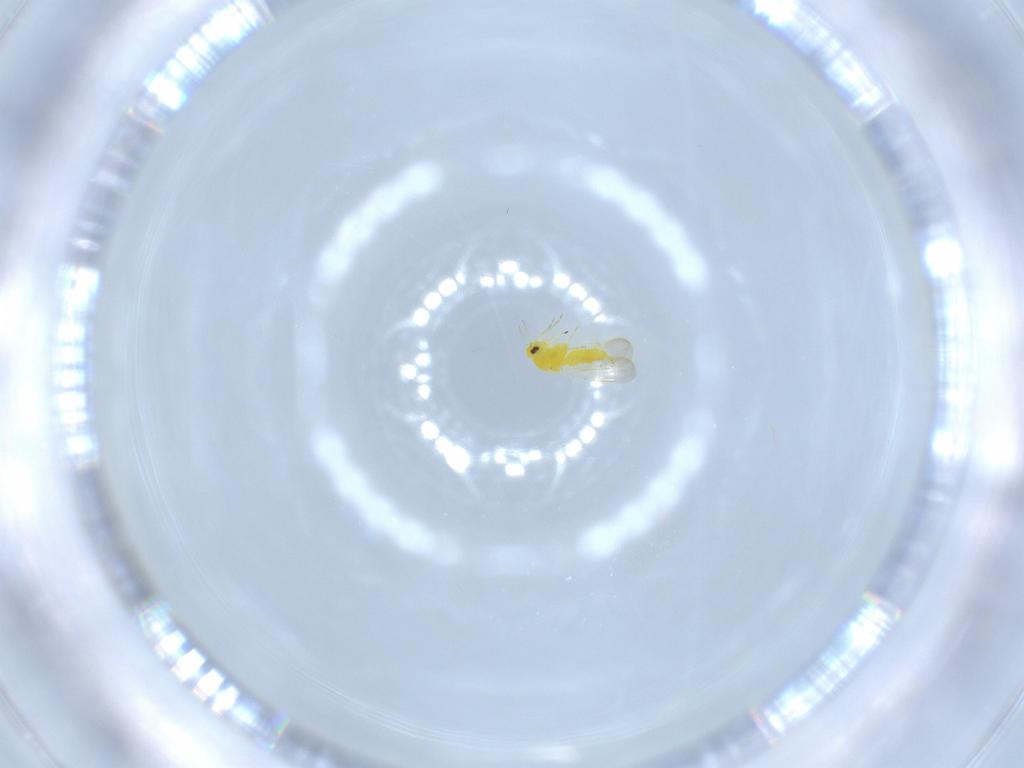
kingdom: Animalia
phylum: Arthropoda
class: Insecta
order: Hemiptera
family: Aleyrodidae
